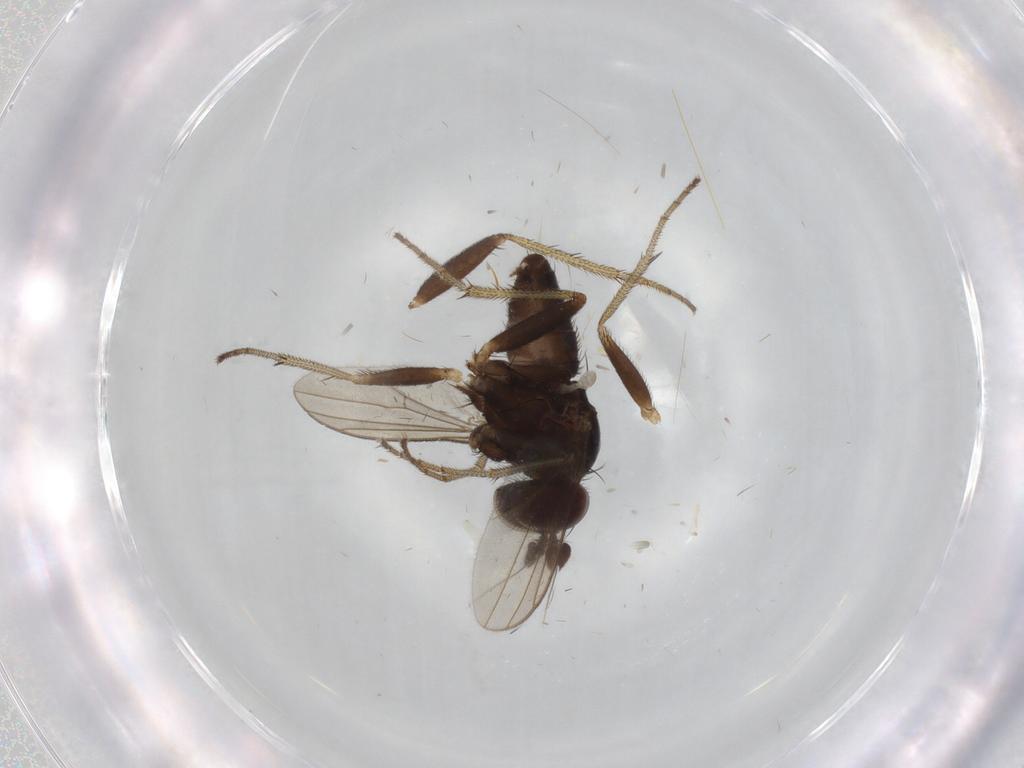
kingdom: Animalia
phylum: Arthropoda
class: Insecta
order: Diptera
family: Dolichopodidae
